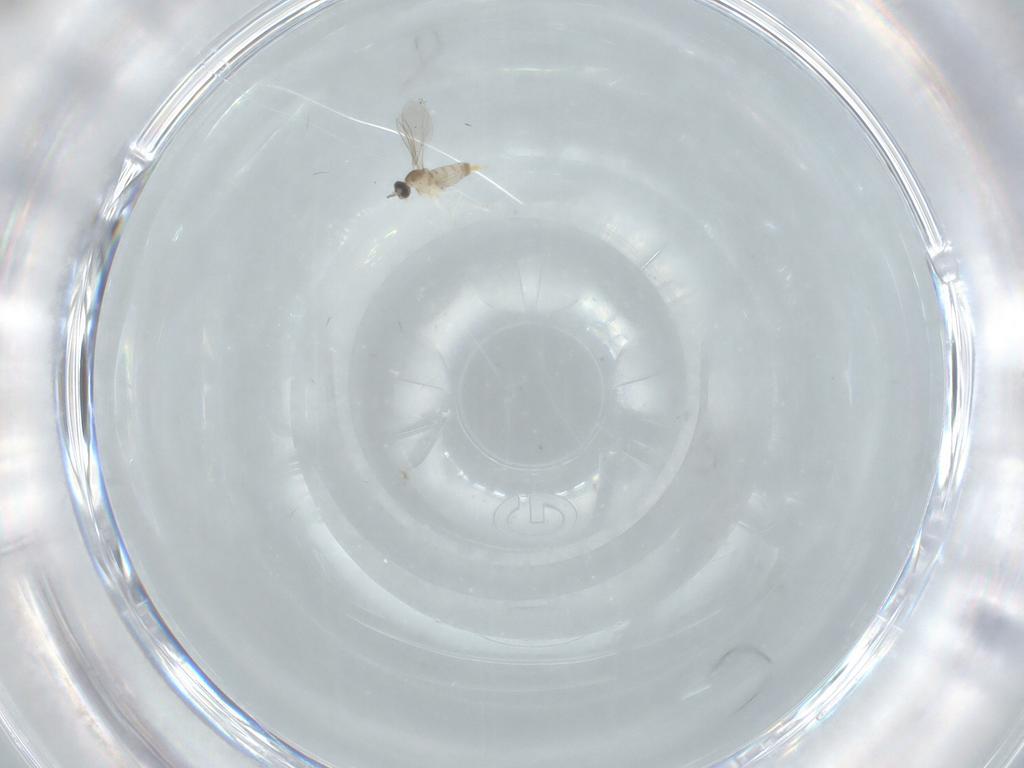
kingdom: Animalia
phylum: Arthropoda
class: Insecta
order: Diptera
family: Cecidomyiidae
